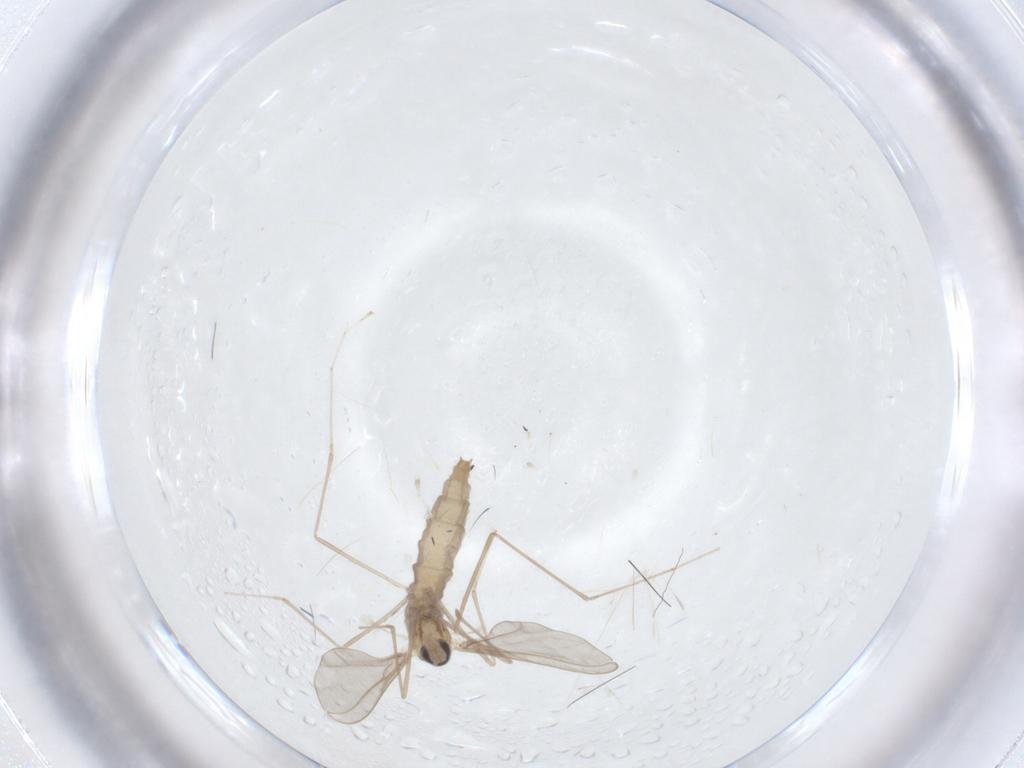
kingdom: Animalia
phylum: Arthropoda
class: Insecta
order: Diptera
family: Cecidomyiidae
